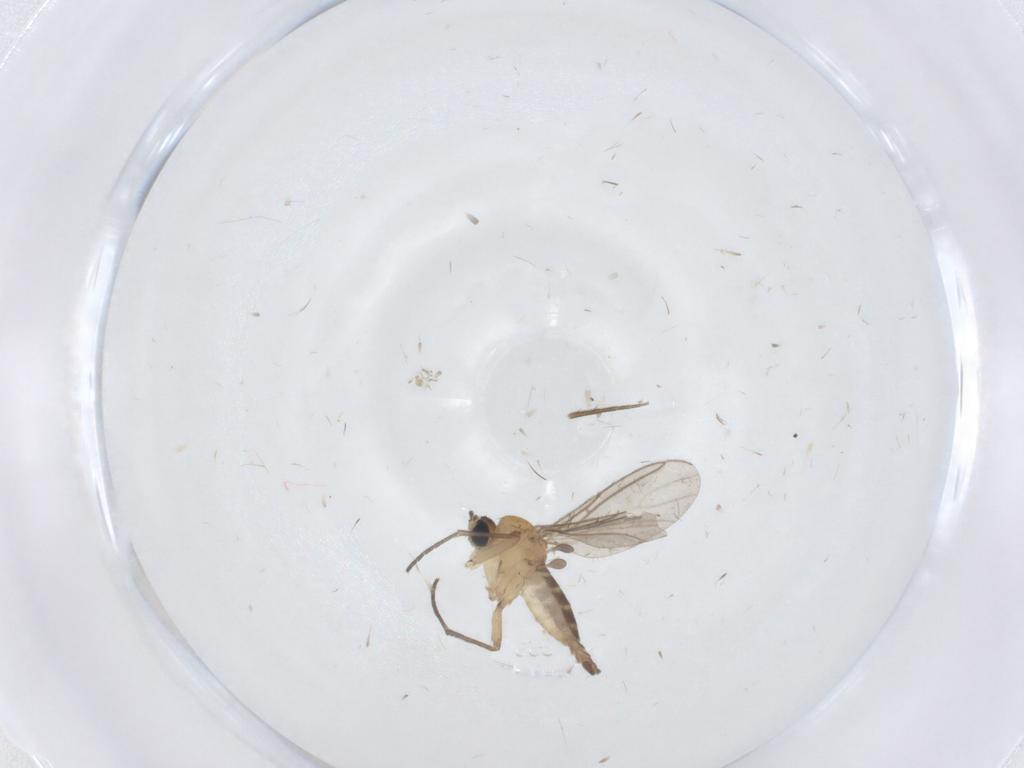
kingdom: Animalia
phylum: Arthropoda
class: Insecta
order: Diptera
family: Sciaridae
